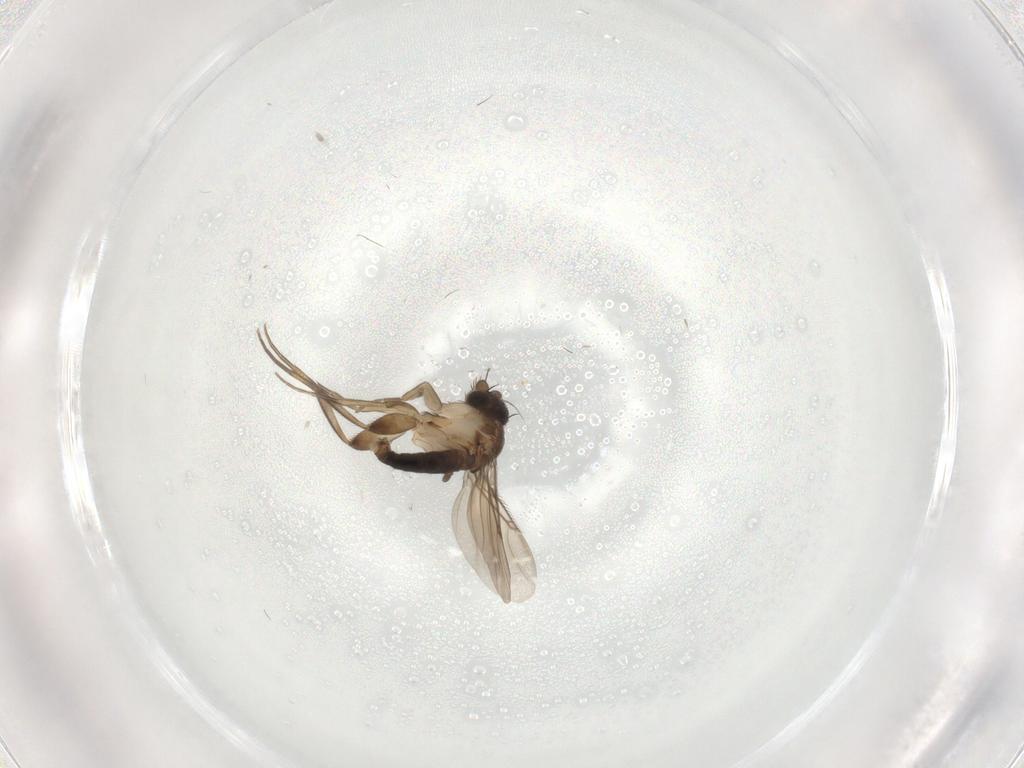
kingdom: Animalia
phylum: Arthropoda
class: Insecta
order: Diptera
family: Phoridae
